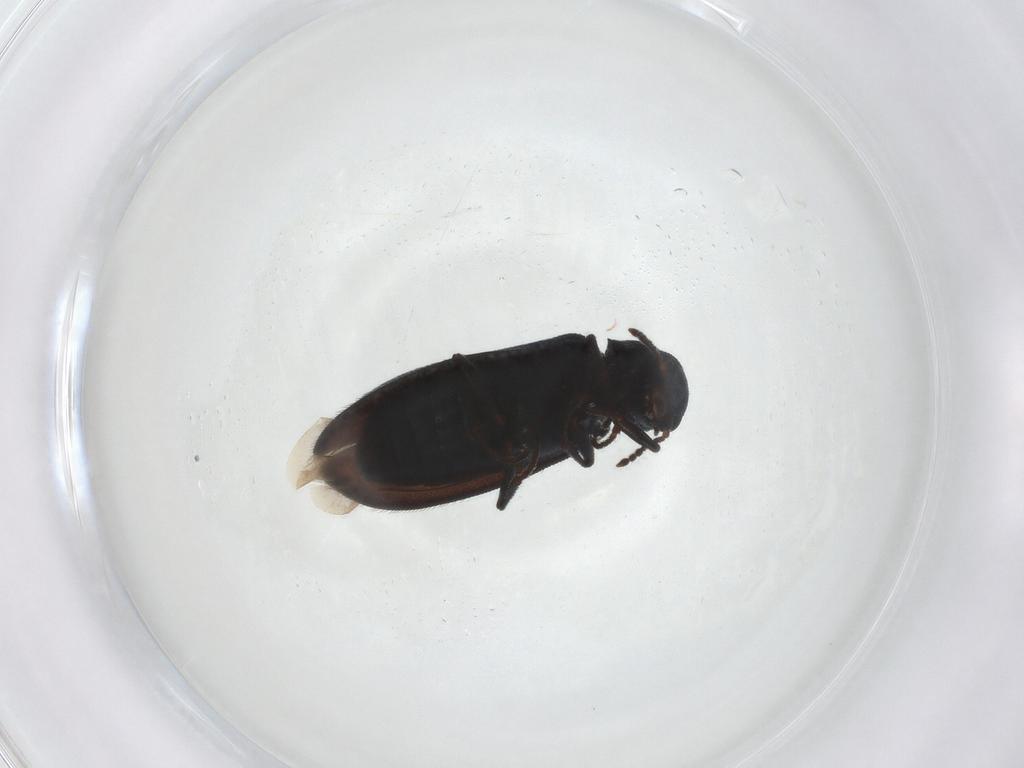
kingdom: Animalia
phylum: Arthropoda
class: Insecta
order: Coleoptera
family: Melyridae
